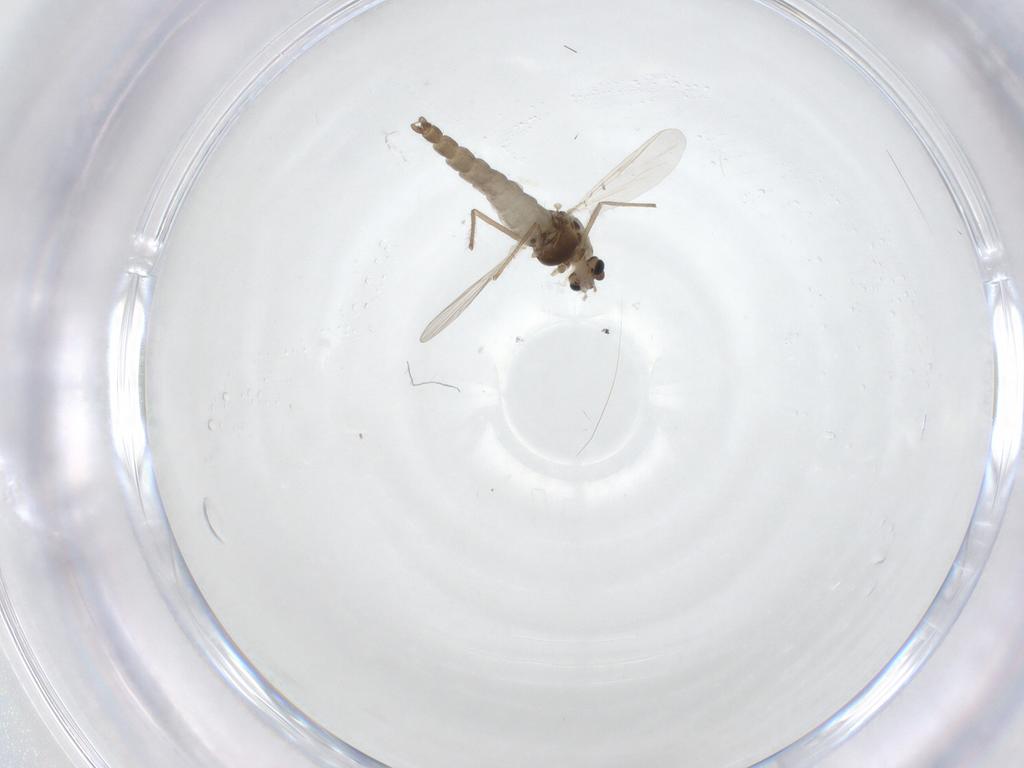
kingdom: Animalia
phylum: Arthropoda
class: Insecta
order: Diptera
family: Chironomidae
